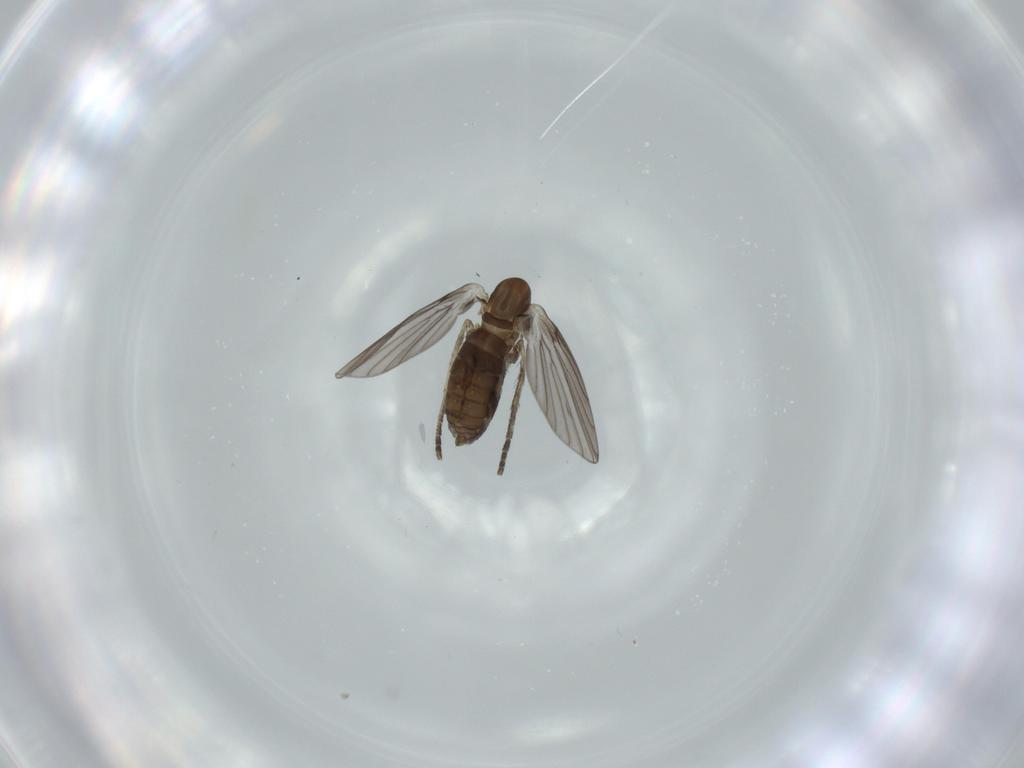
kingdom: Animalia
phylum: Arthropoda
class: Insecta
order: Diptera
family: Psychodidae
